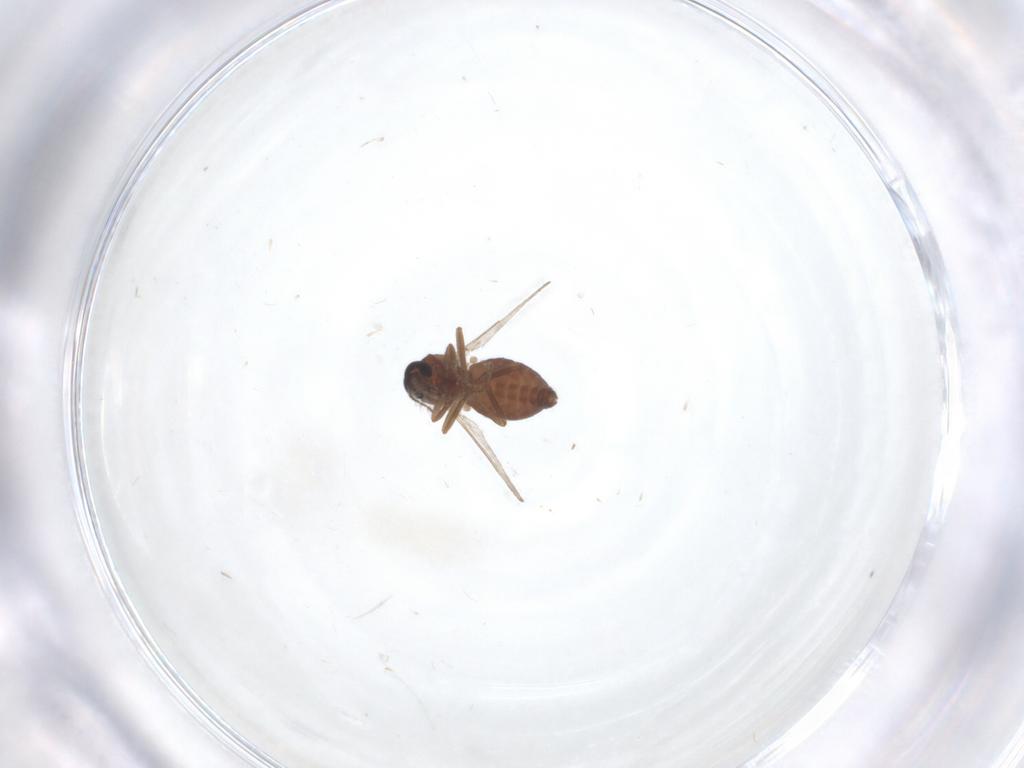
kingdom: Animalia
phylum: Arthropoda
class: Insecta
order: Diptera
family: Ceratopogonidae
